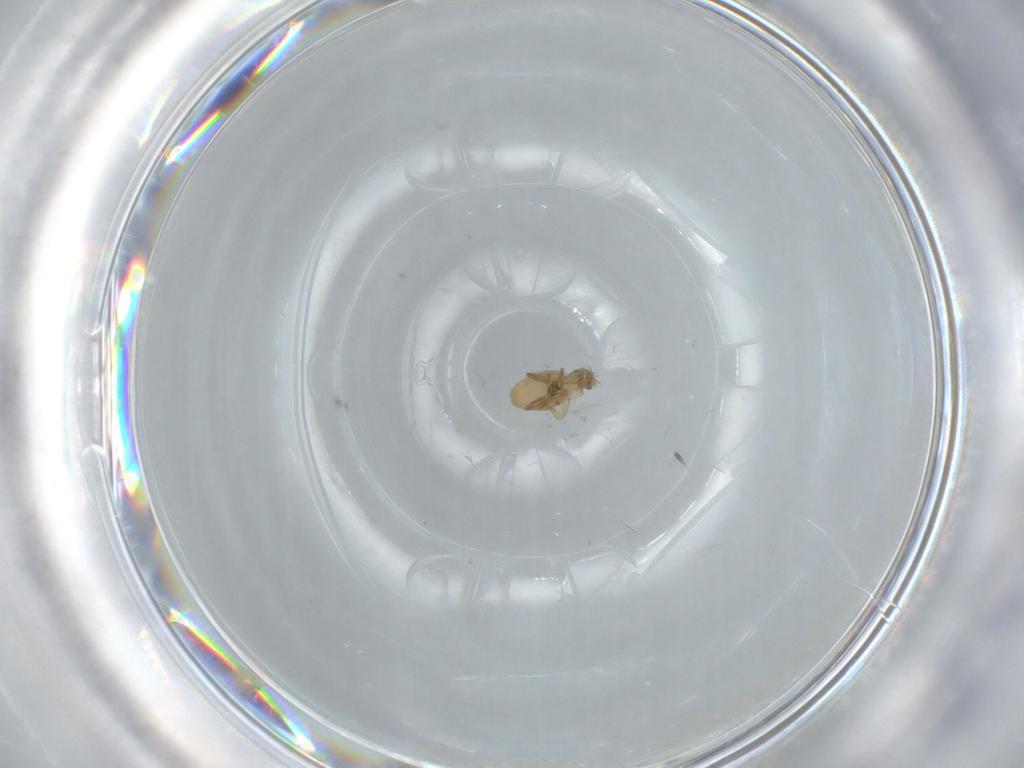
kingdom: Animalia
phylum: Arthropoda
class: Insecta
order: Diptera
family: Phoridae
